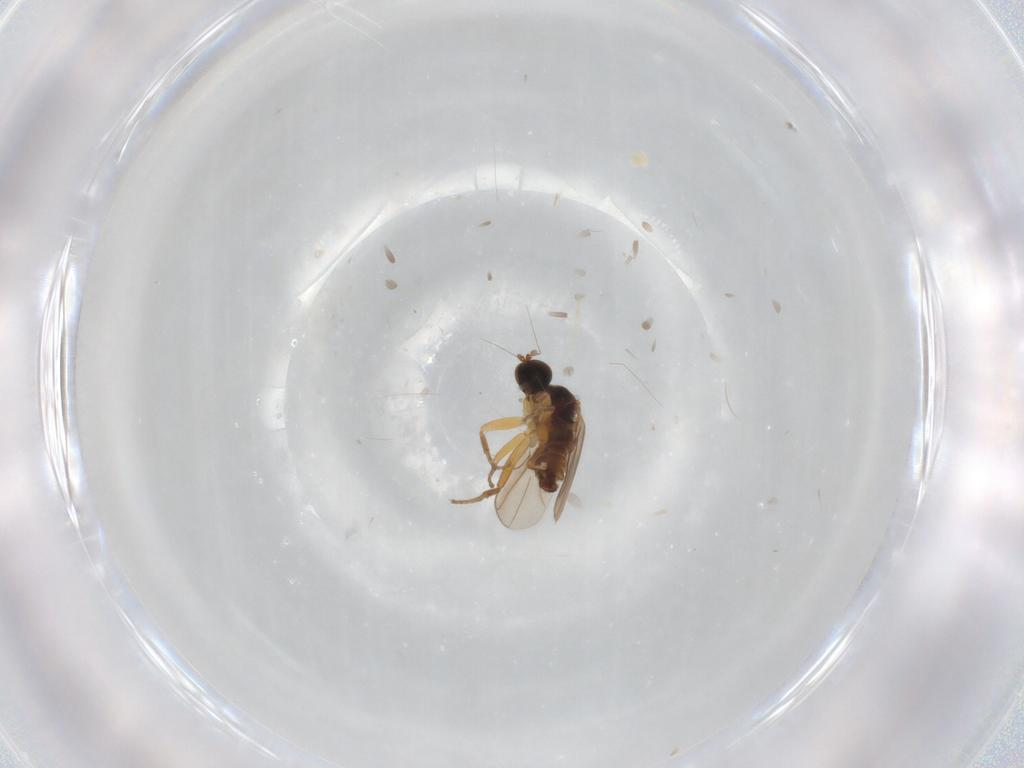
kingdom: Animalia
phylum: Arthropoda
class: Insecta
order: Diptera
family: Hybotidae
